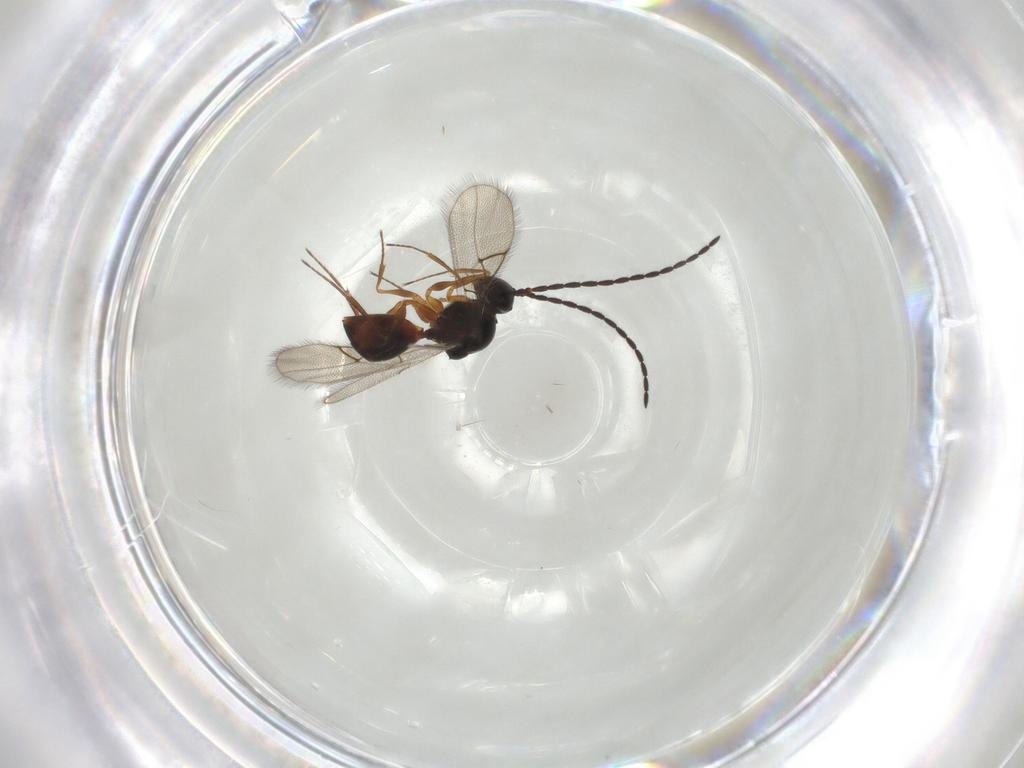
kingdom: Animalia
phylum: Arthropoda
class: Insecta
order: Hymenoptera
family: Figitidae
